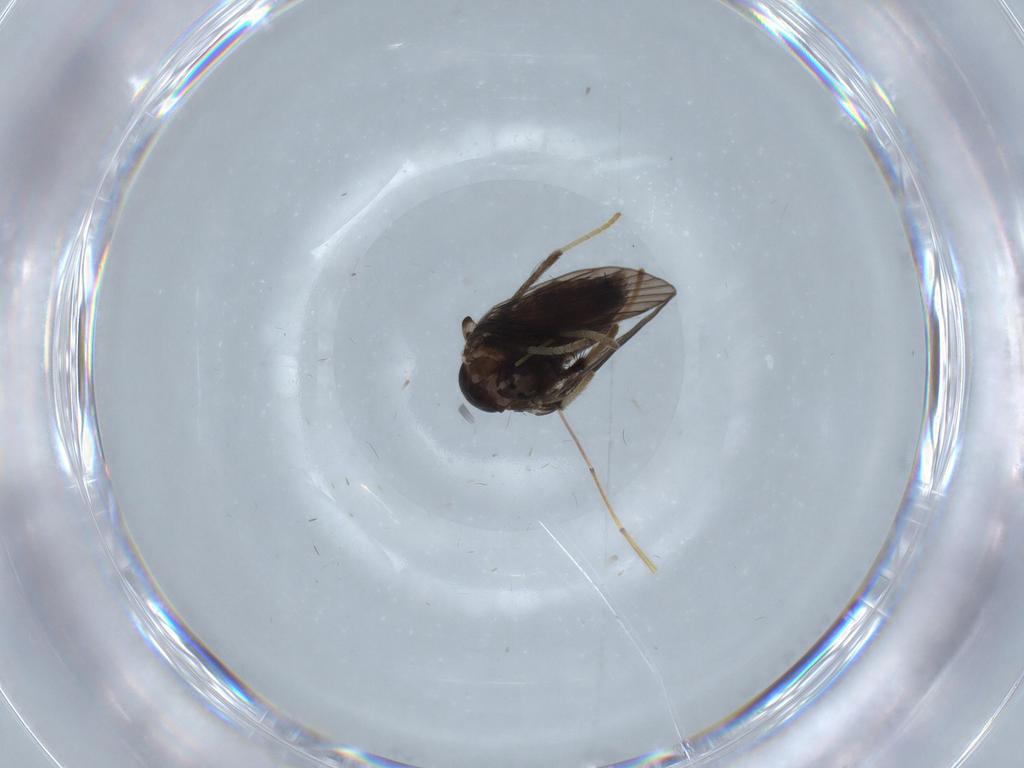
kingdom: Animalia
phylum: Arthropoda
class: Insecta
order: Diptera
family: Psychodidae
